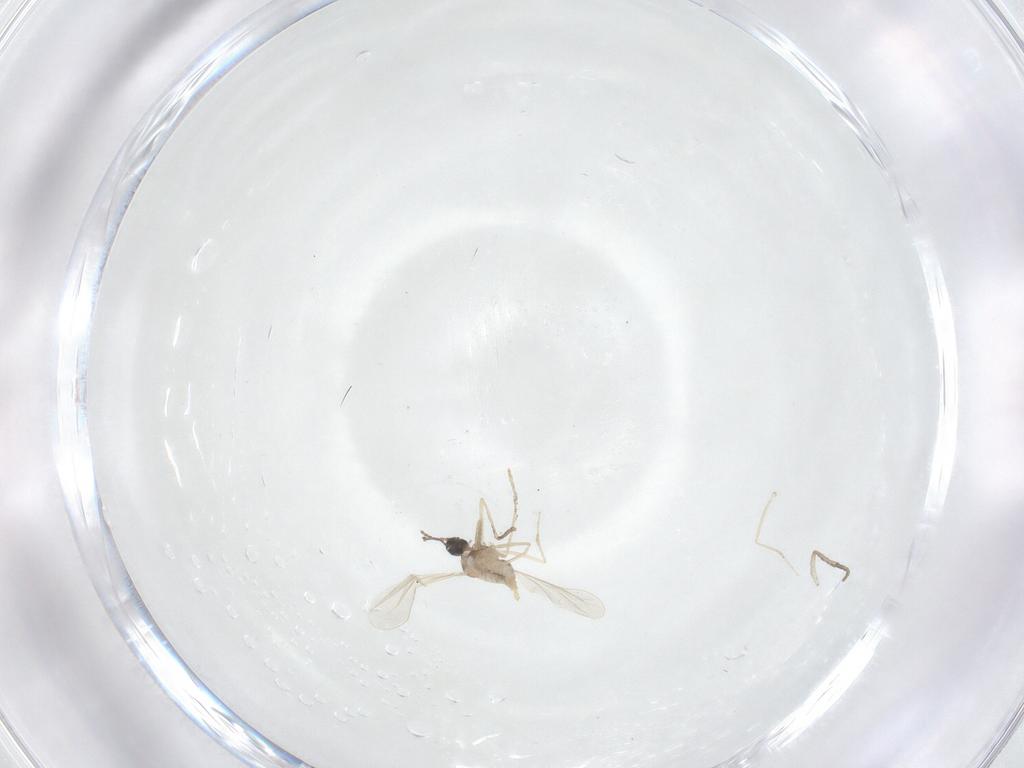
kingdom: Animalia
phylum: Arthropoda
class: Insecta
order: Diptera
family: Cecidomyiidae
